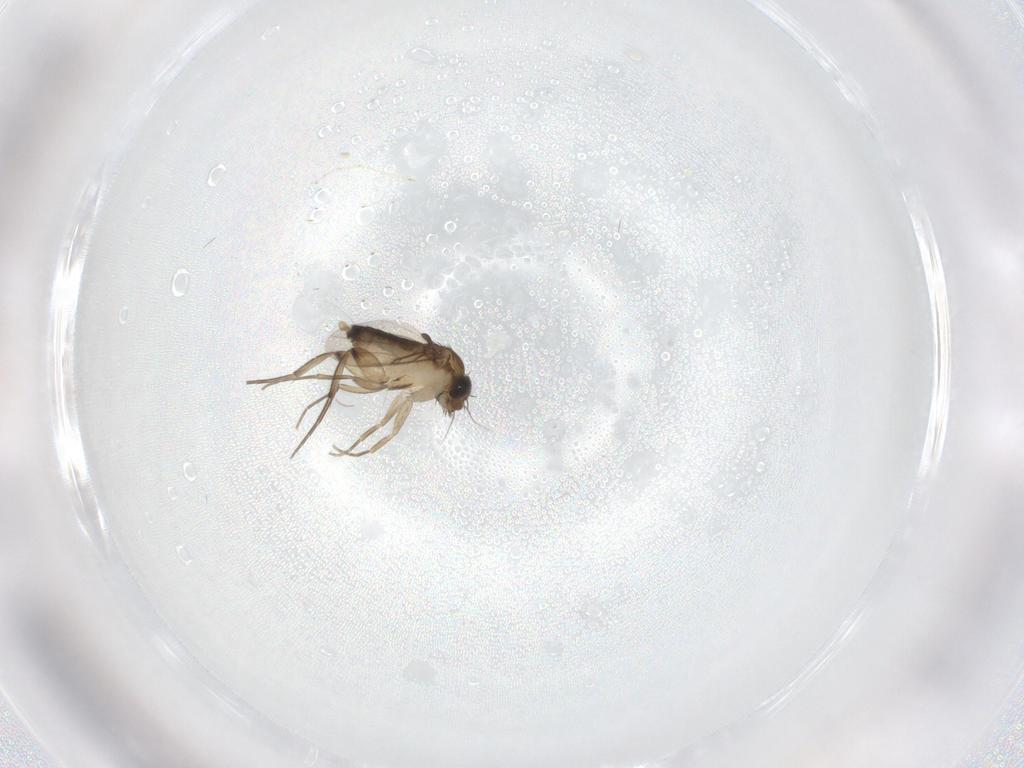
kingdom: Animalia
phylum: Arthropoda
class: Insecta
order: Diptera
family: Phoridae
